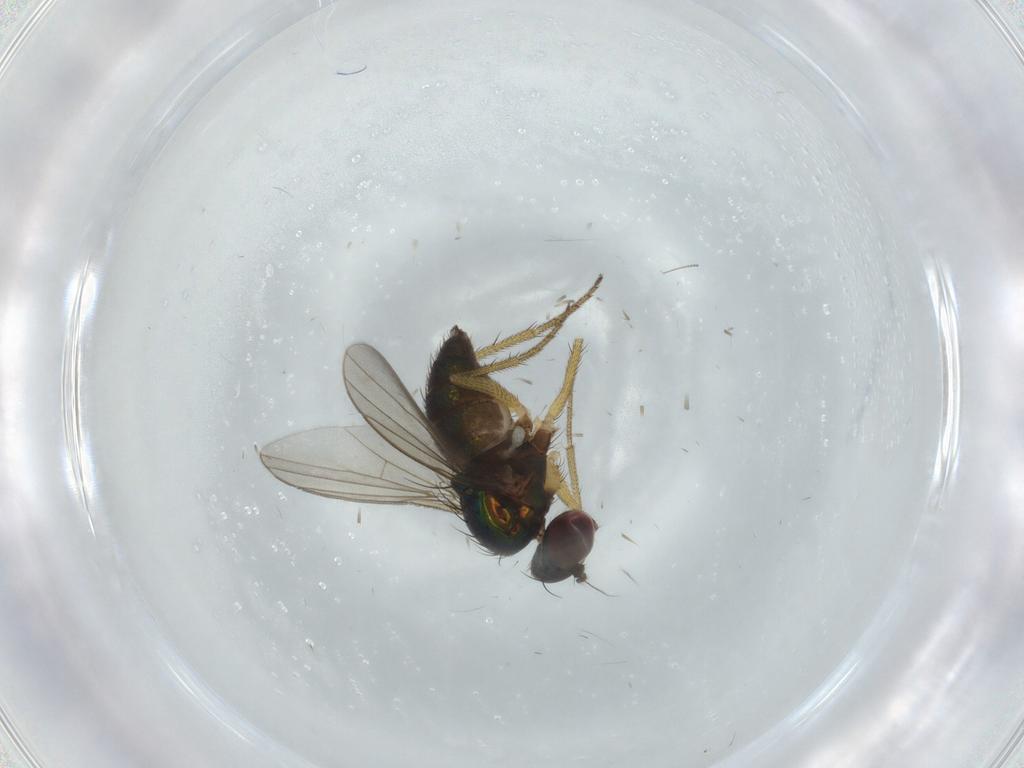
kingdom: Animalia
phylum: Arthropoda
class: Insecta
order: Diptera
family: Dolichopodidae
